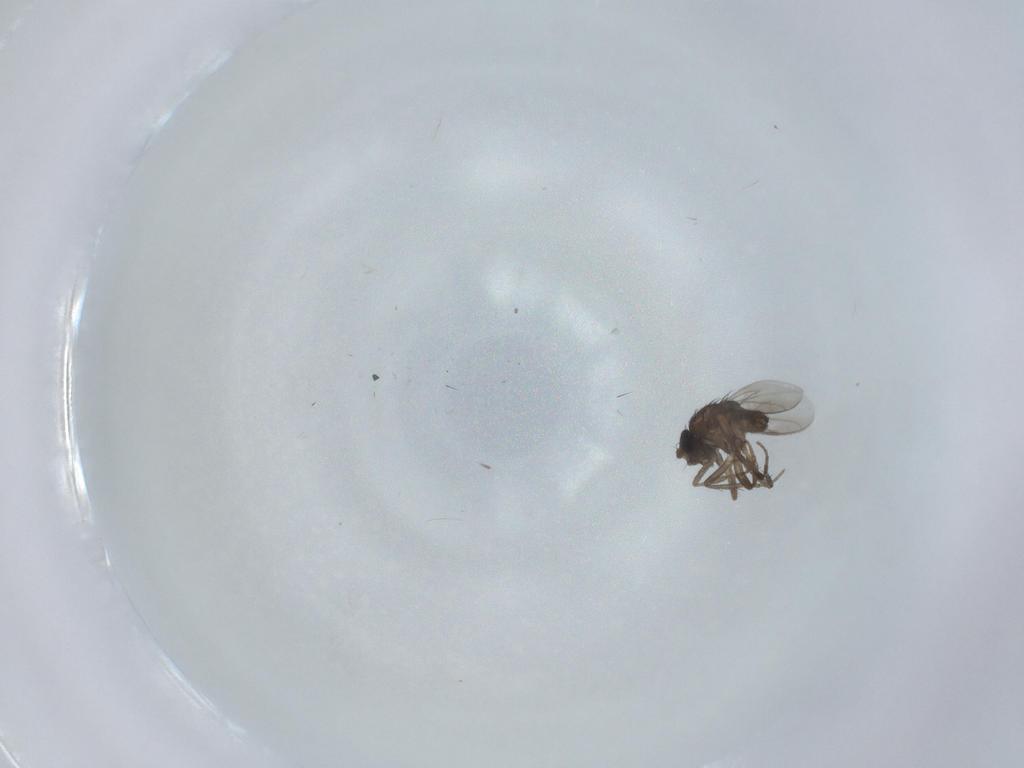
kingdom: Animalia
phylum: Arthropoda
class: Insecta
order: Diptera
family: Sphaeroceridae
